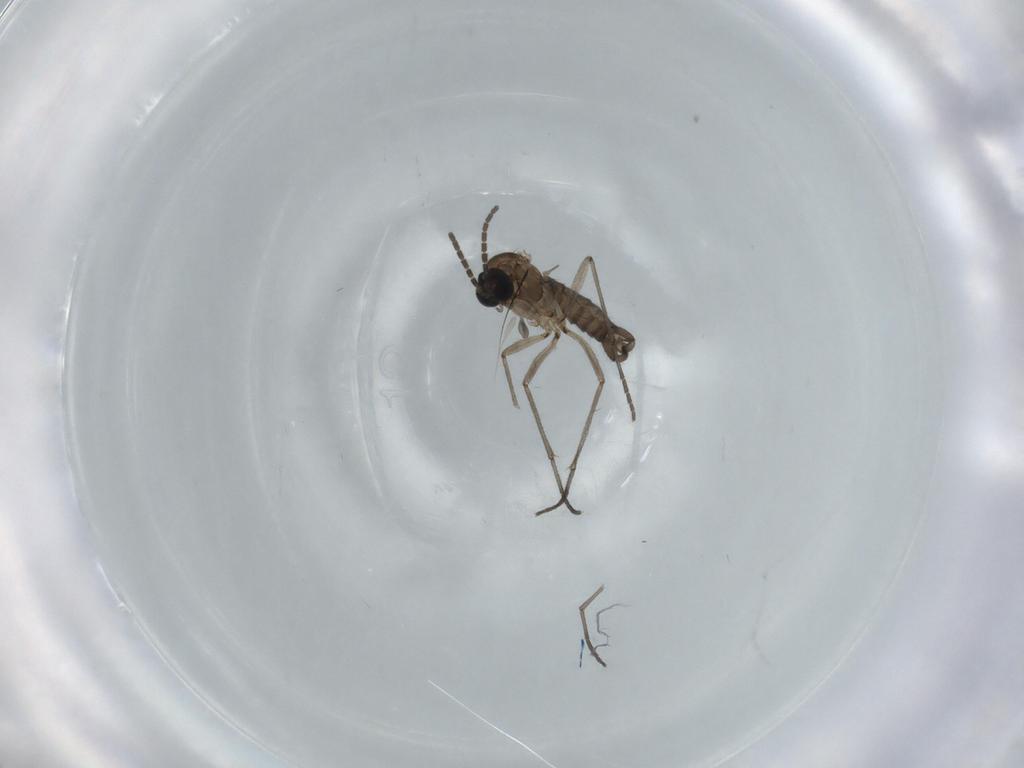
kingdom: Animalia
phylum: Arthropoda
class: Insecta
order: Diptera
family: Sciaridae
